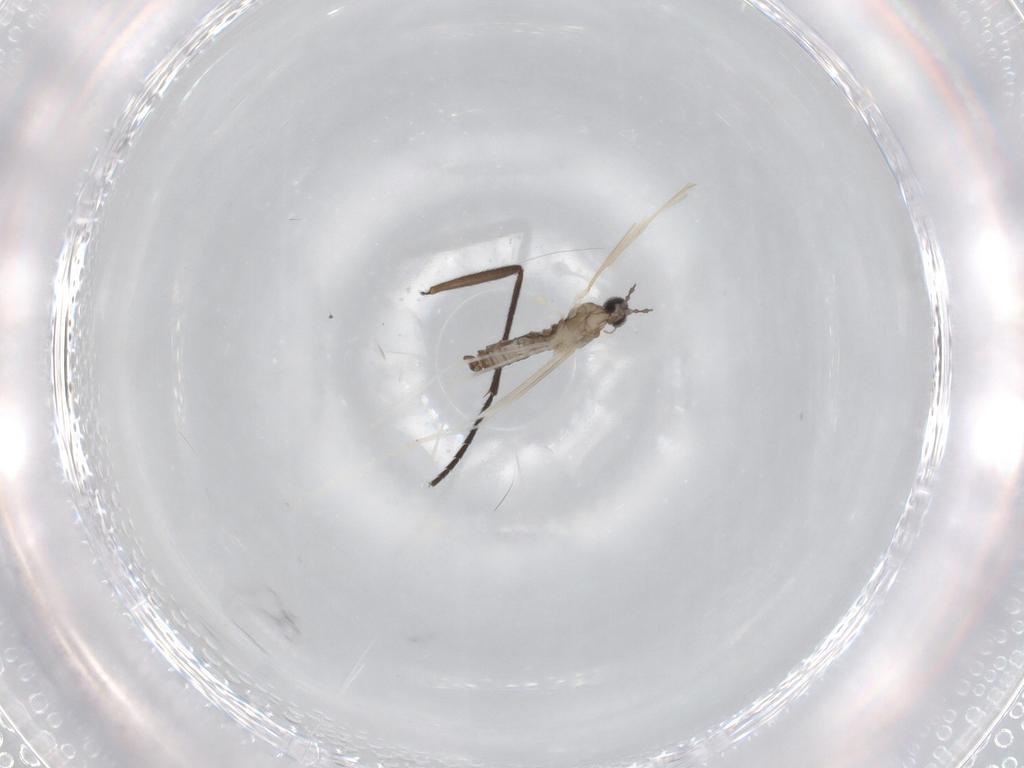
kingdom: Animalia
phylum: Arthropoda
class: Insecta
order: Diptera
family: Cecidomyiidae
